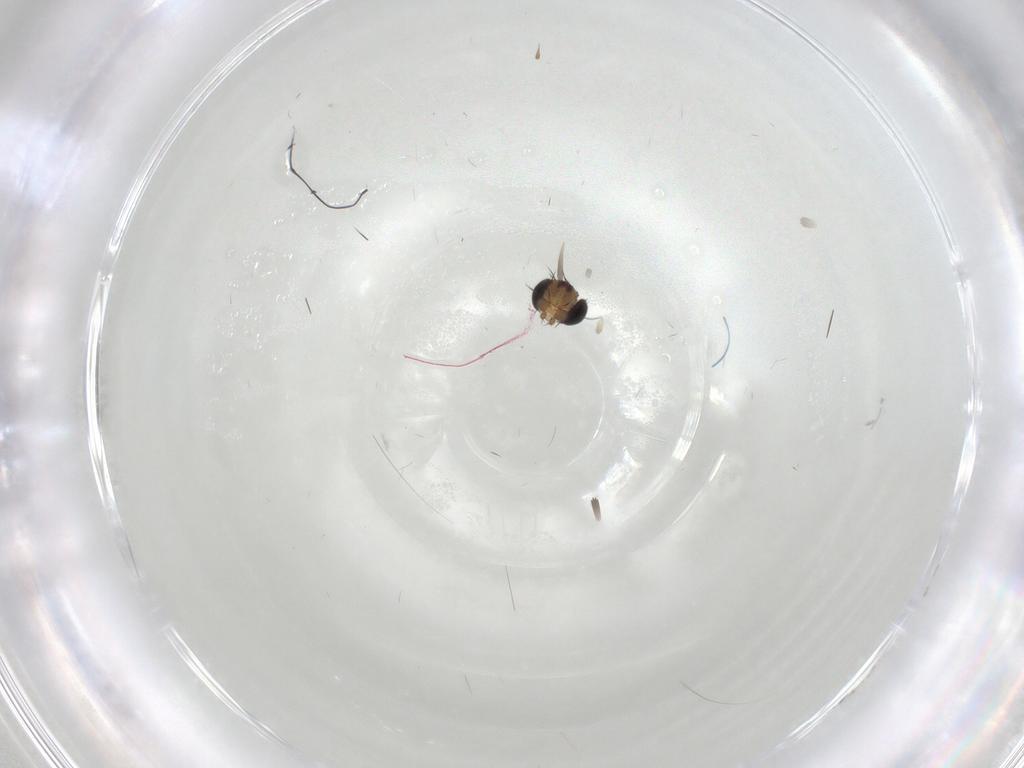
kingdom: Animalia
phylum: Arthropoda
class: Insecta
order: Diptera
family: Phoridae
